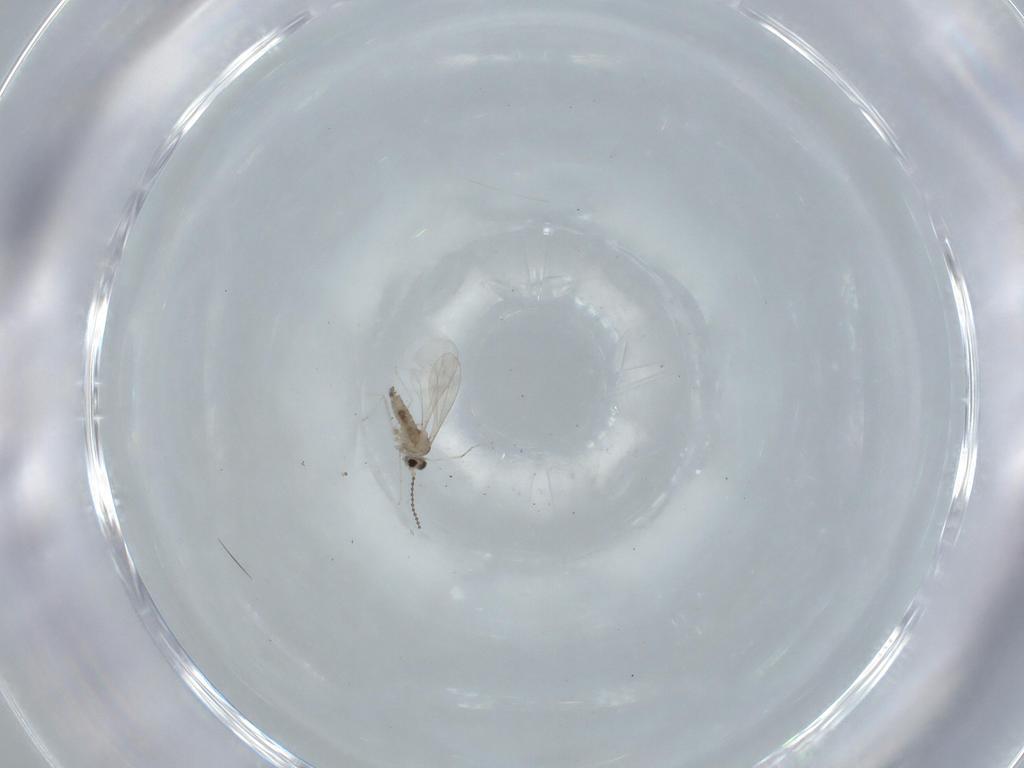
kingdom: Animalia
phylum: Arthropoda
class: Insecta
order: Diptera
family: Cecidomyiidae
